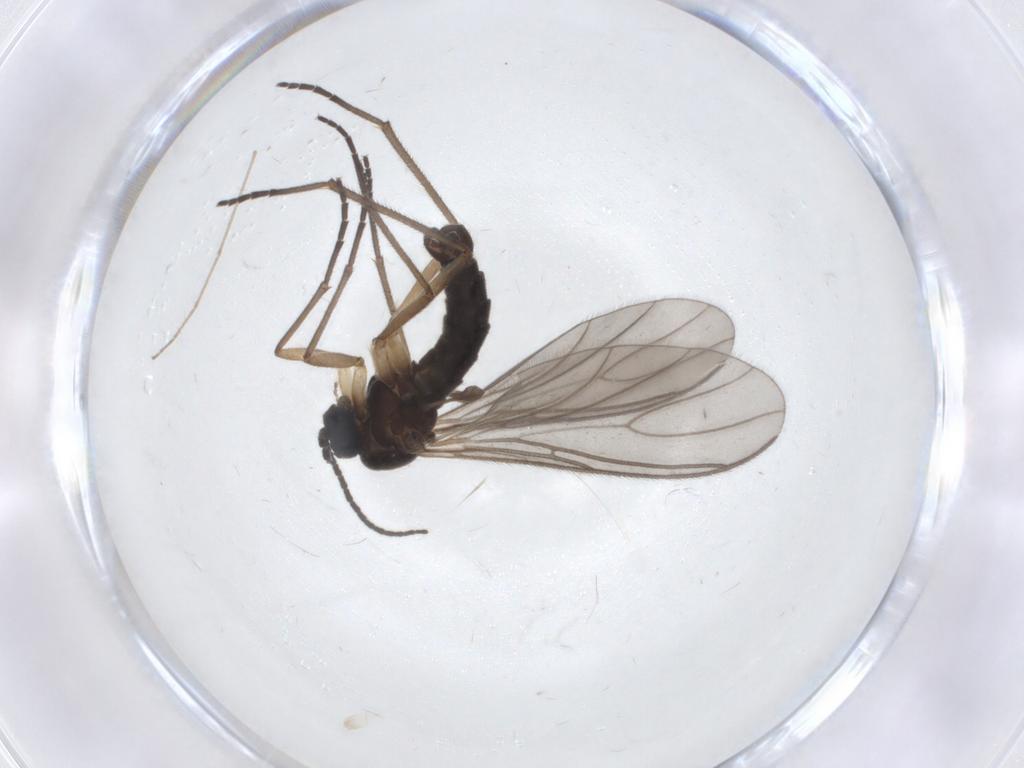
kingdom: Animalia
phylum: Arthropoda
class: Insecta
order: Diptera
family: Sciaridae
